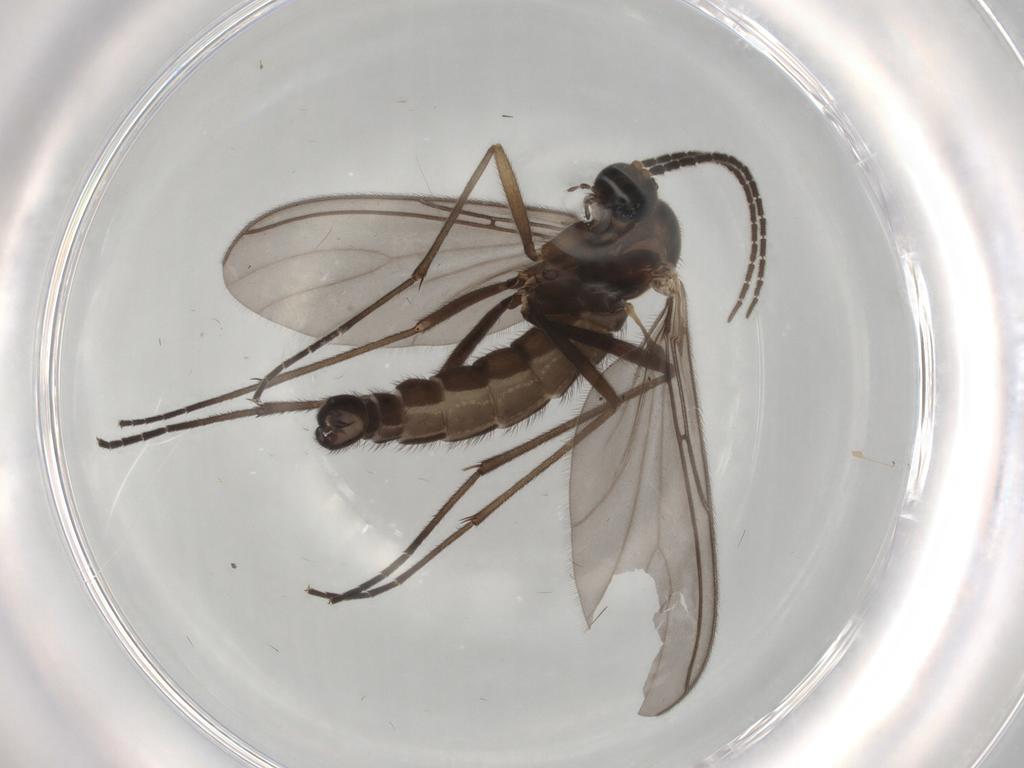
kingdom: Animalia
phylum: Arthropoda
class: Insecta
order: Diptera
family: Sciaridae
